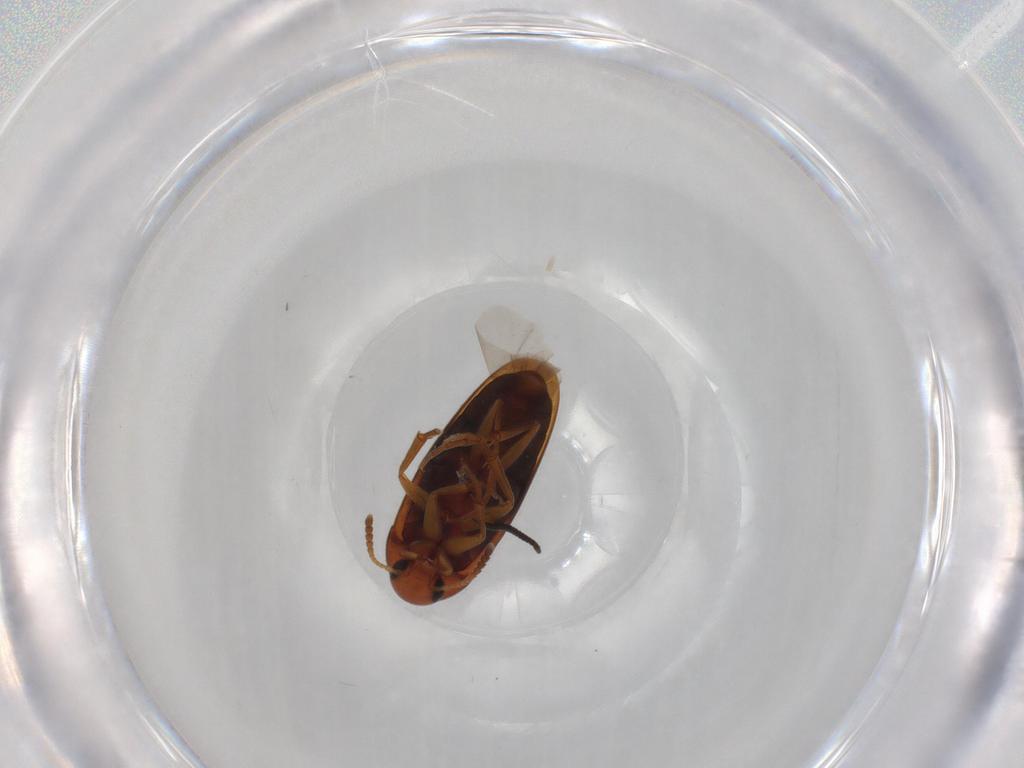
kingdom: Animalia
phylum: Arthropoda
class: Insecta
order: Coleoptera
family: Scraptiidae
